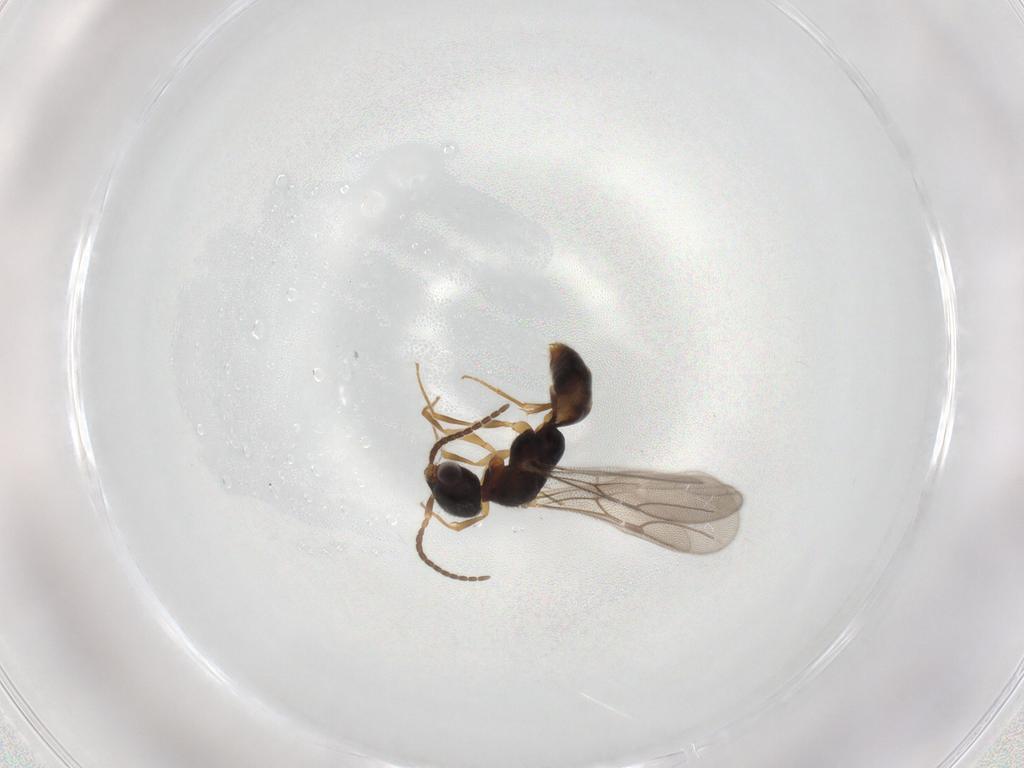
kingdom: Animalia
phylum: Arthropoda
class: Insecta
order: Hymenoptera
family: Bethylidae
